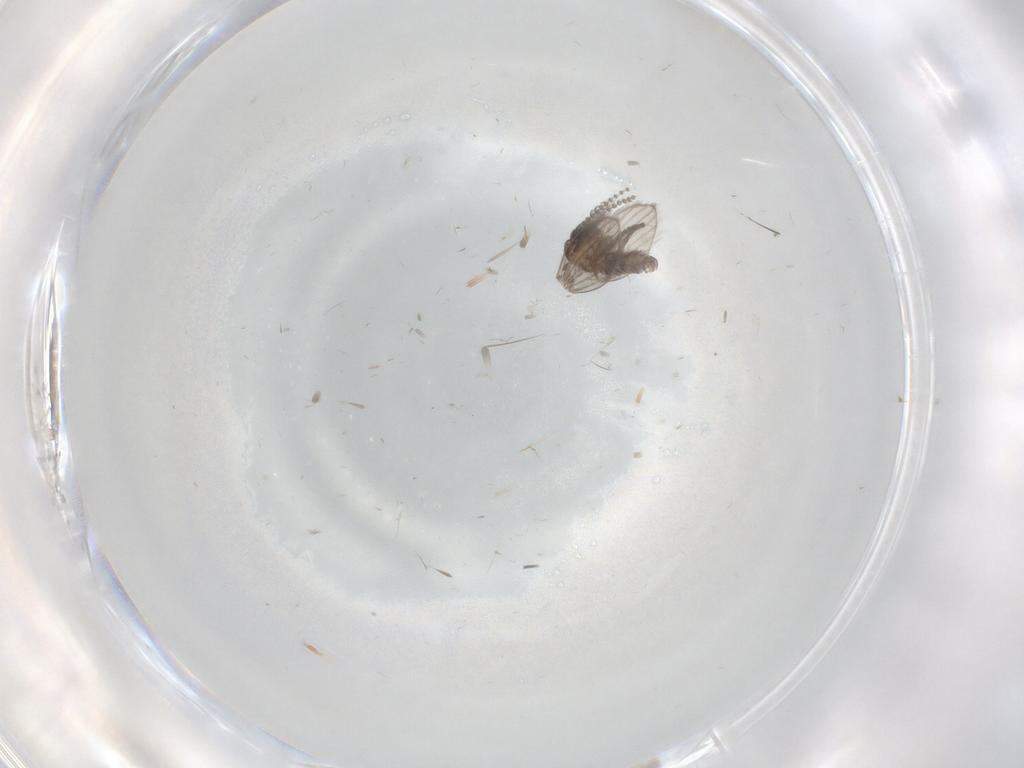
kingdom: Animalia
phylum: Arthropoda
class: Insecta
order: Diptera
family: Psychodidae
